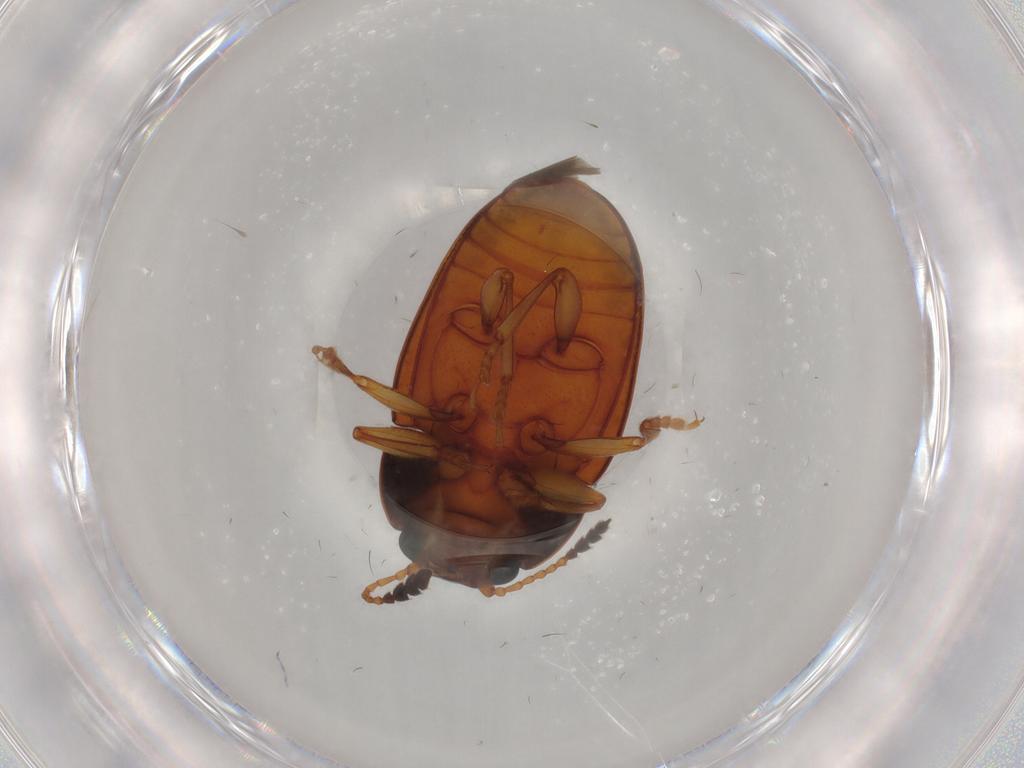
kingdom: Animalia
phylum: Arthropoda
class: Insecta
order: Coleoptera
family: Erotylidae
